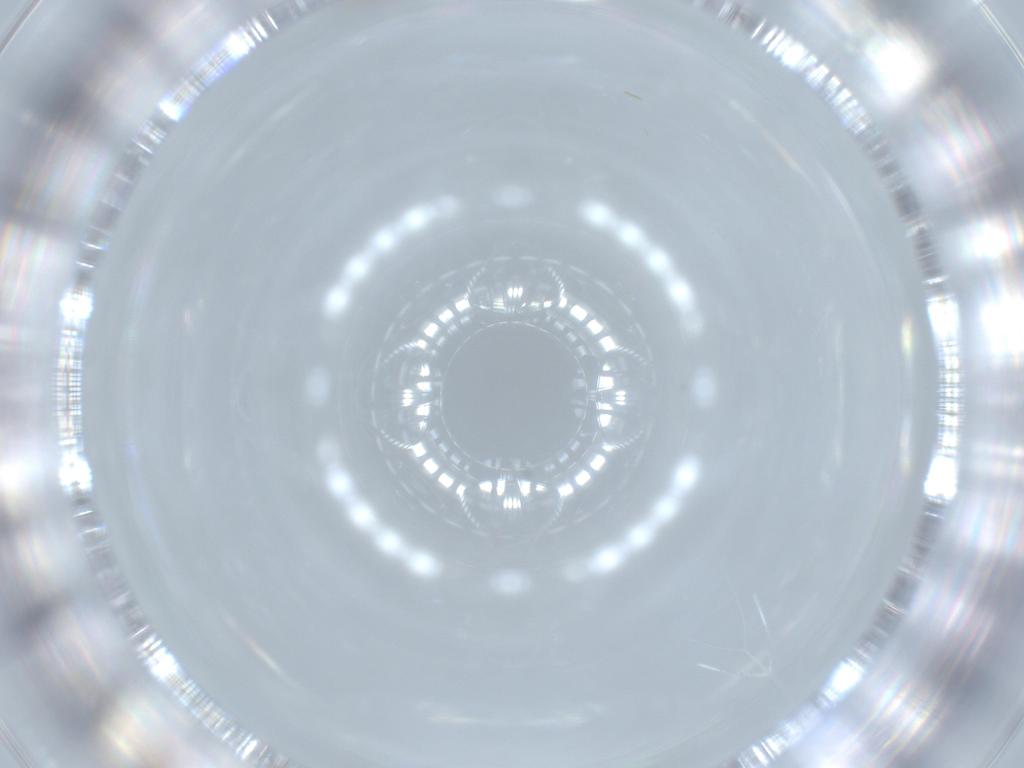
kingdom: Animalia
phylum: Arthropoda
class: Insecta
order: Diptera
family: Cecidomyiidae
